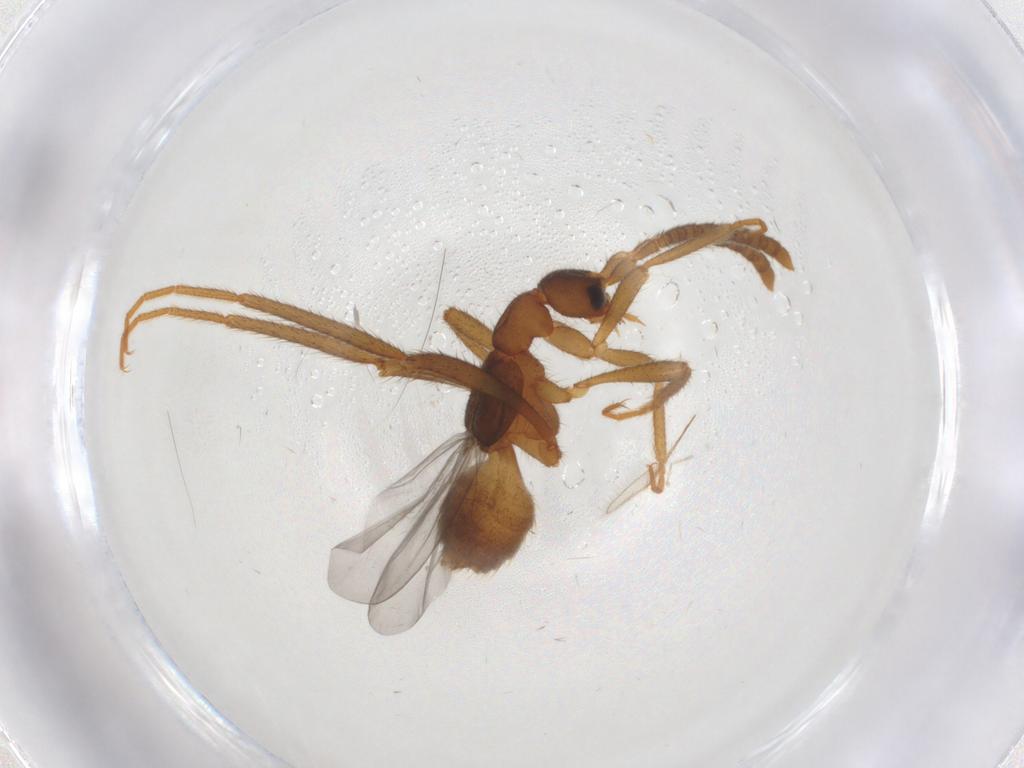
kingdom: Animalia
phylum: Arthropoda
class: Insecta
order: Coleoptera
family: Staphylinidae
